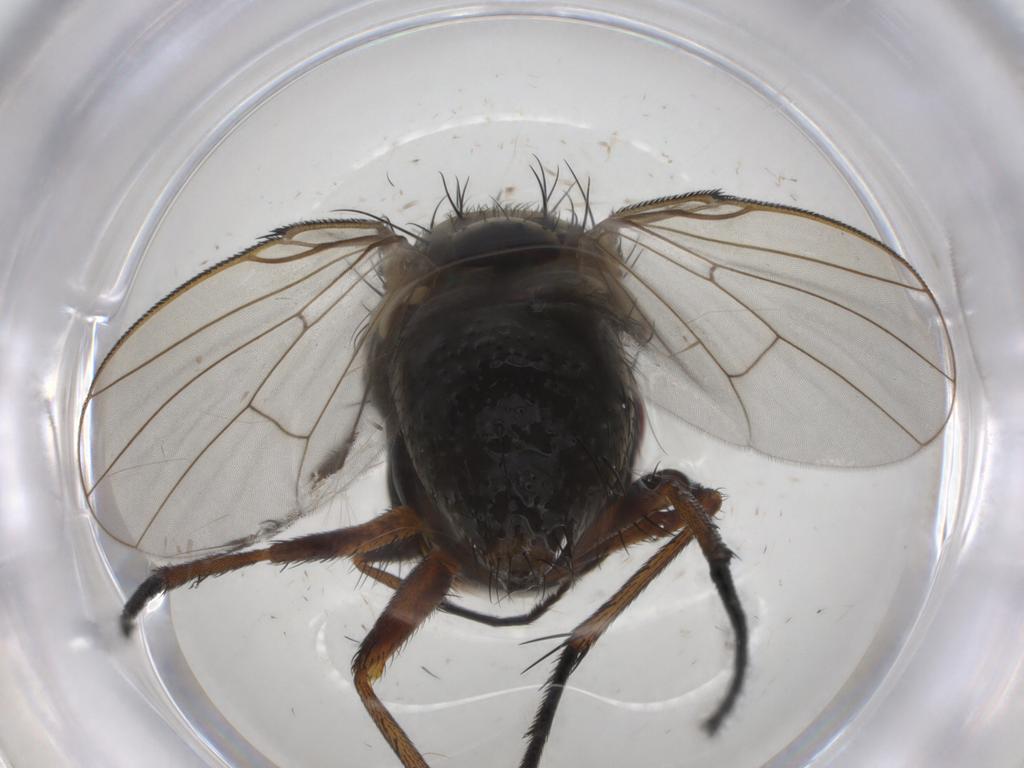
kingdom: Animalia
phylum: Arthropoda
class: Insecta
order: Diptera
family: Muscidae
